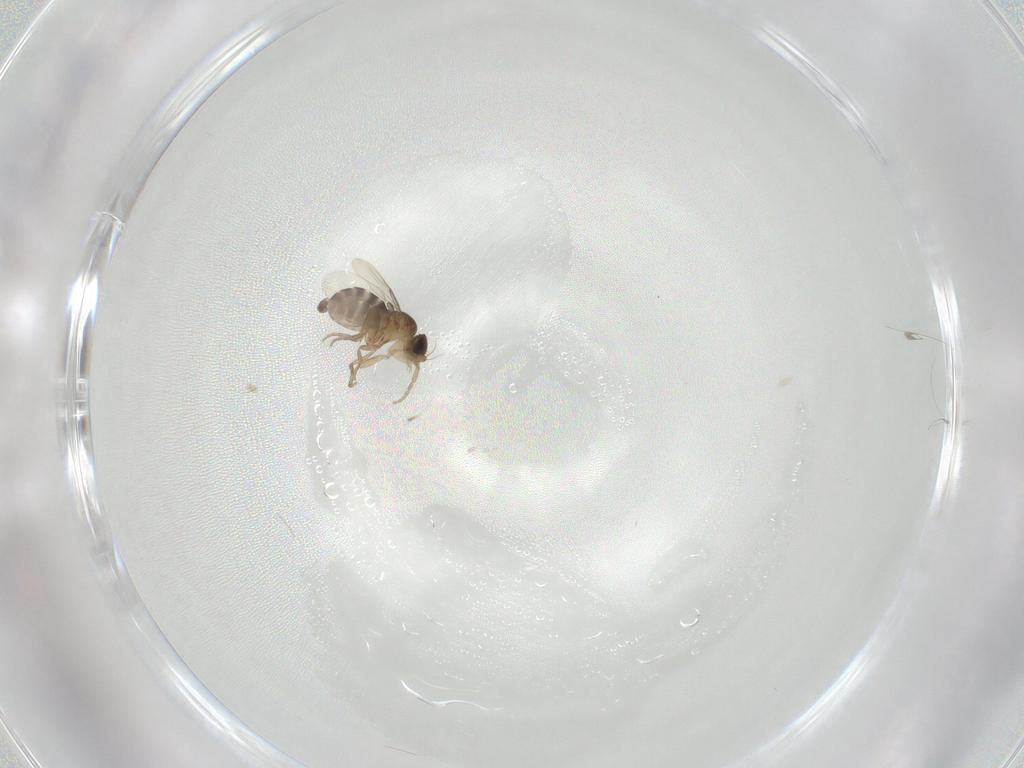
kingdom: Animalia
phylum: Arthropoda
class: Insecta
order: Diptera
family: Phoridae
